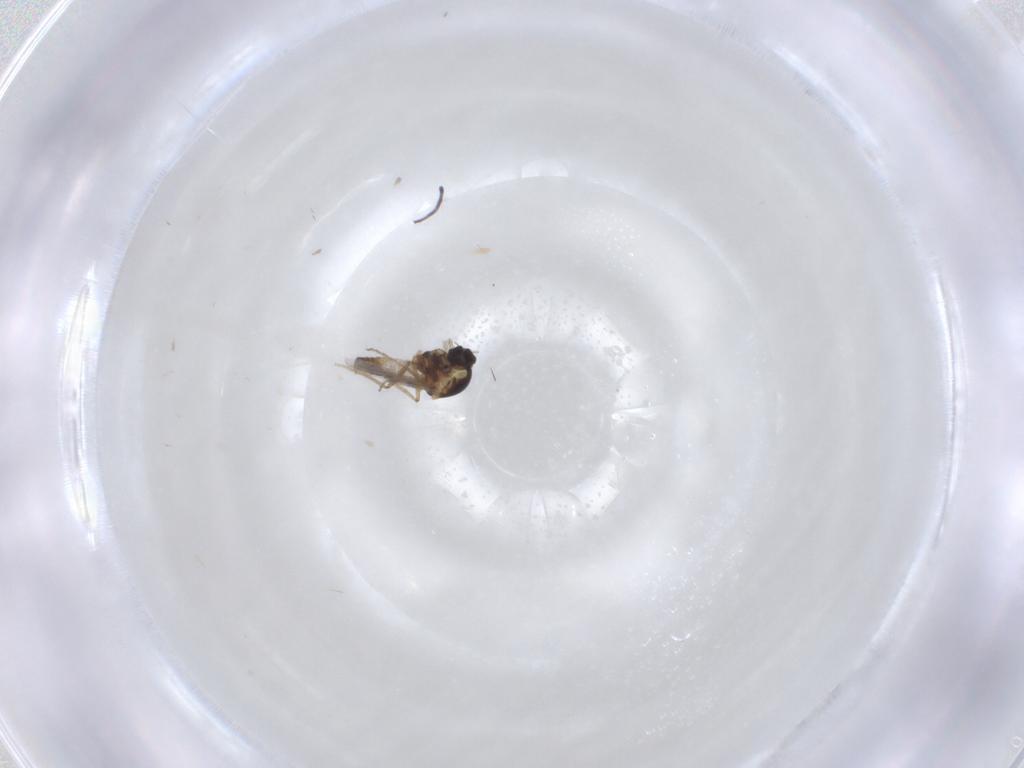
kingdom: Animalia
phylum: Arthropoda
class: Insecta
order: Diptera
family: Ceratopogonidae
